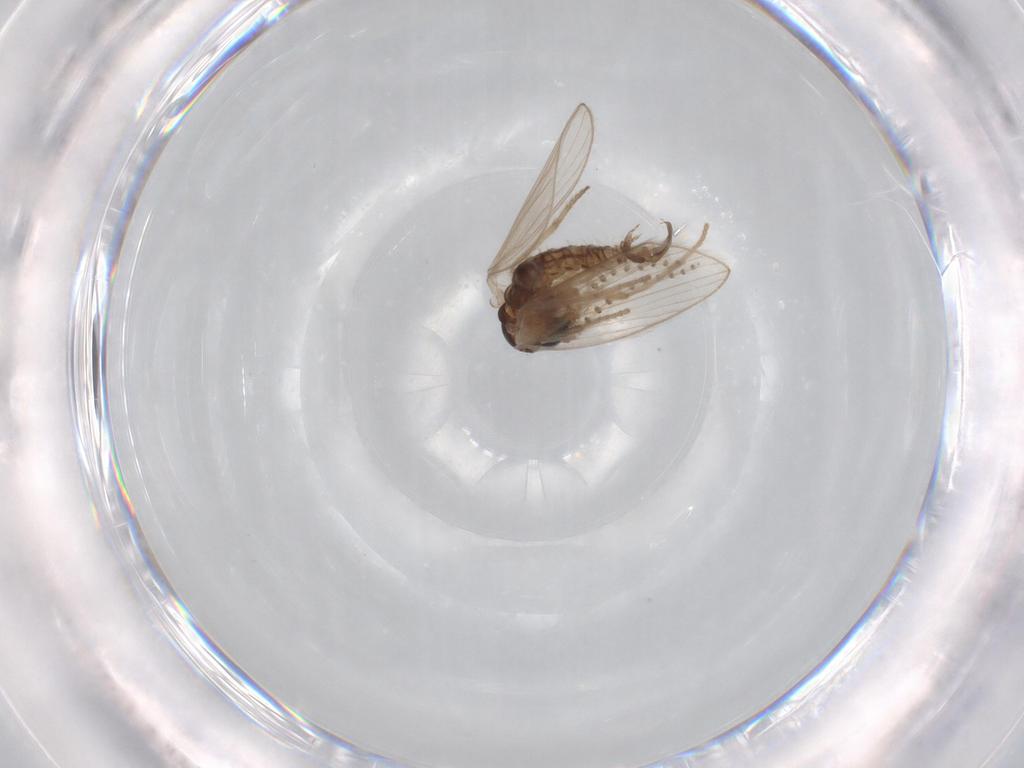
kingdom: Animalia
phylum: Arthropoda
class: Insecta
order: Diptera
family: Psychodidae
